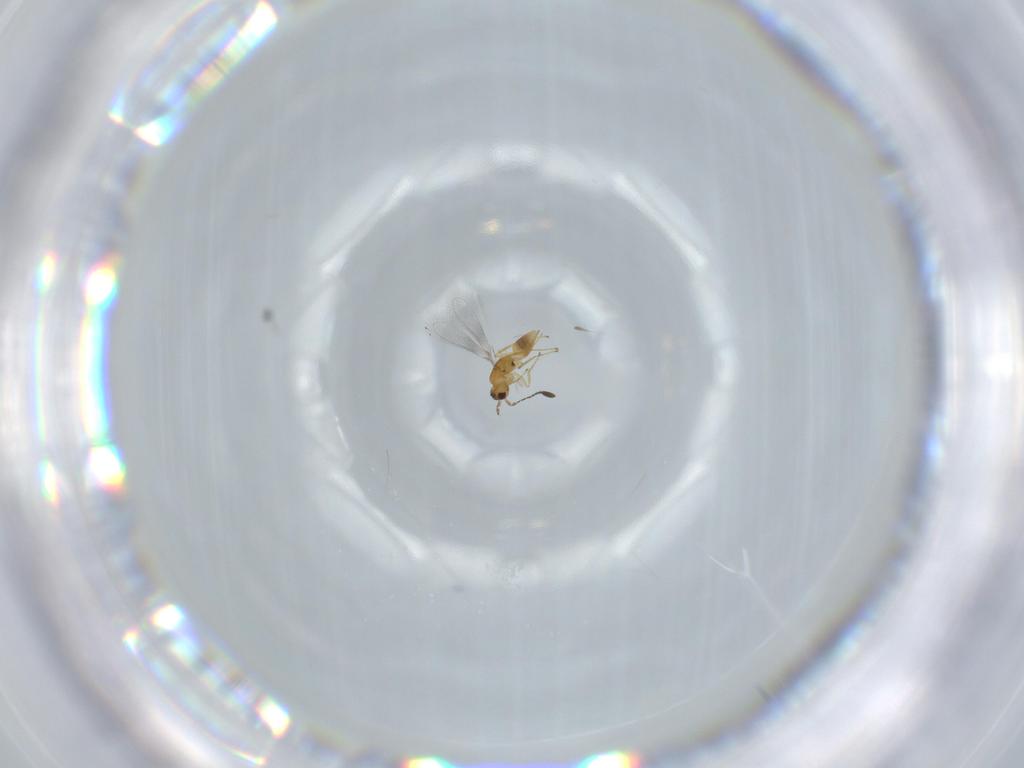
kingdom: Animalia
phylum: Arthropoda
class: Insecta
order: Hymenoptera
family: Mymaridae
